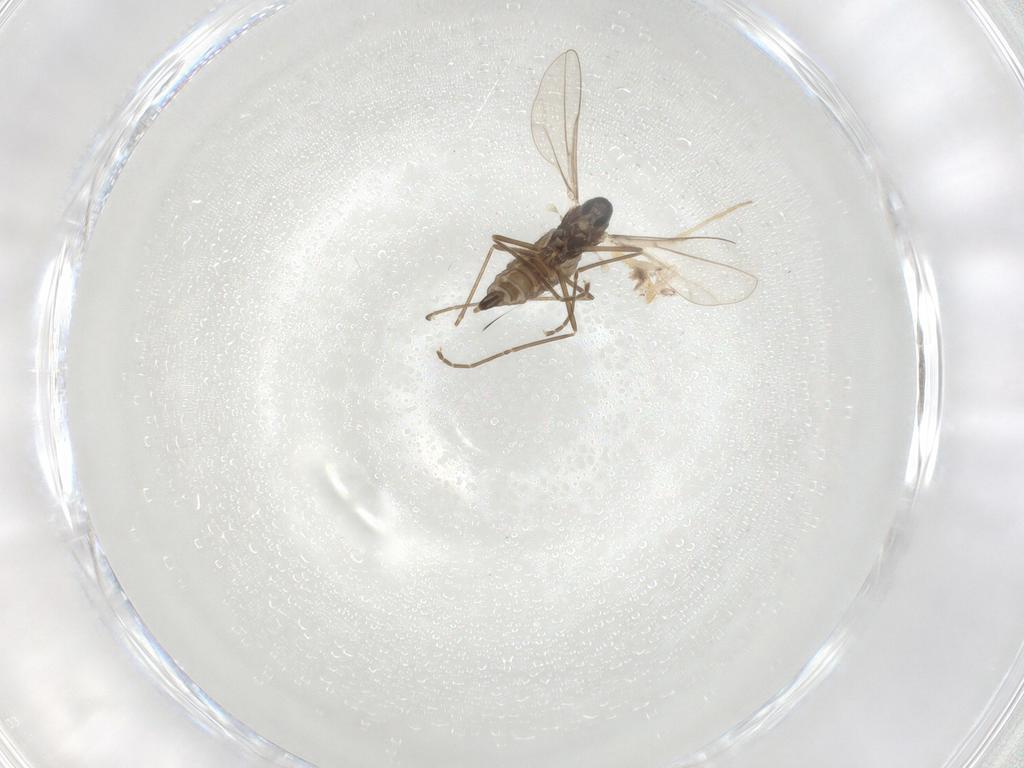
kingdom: Animalia
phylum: Arthropoda
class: Insecta
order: Diptera
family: Cecidomyiidae
